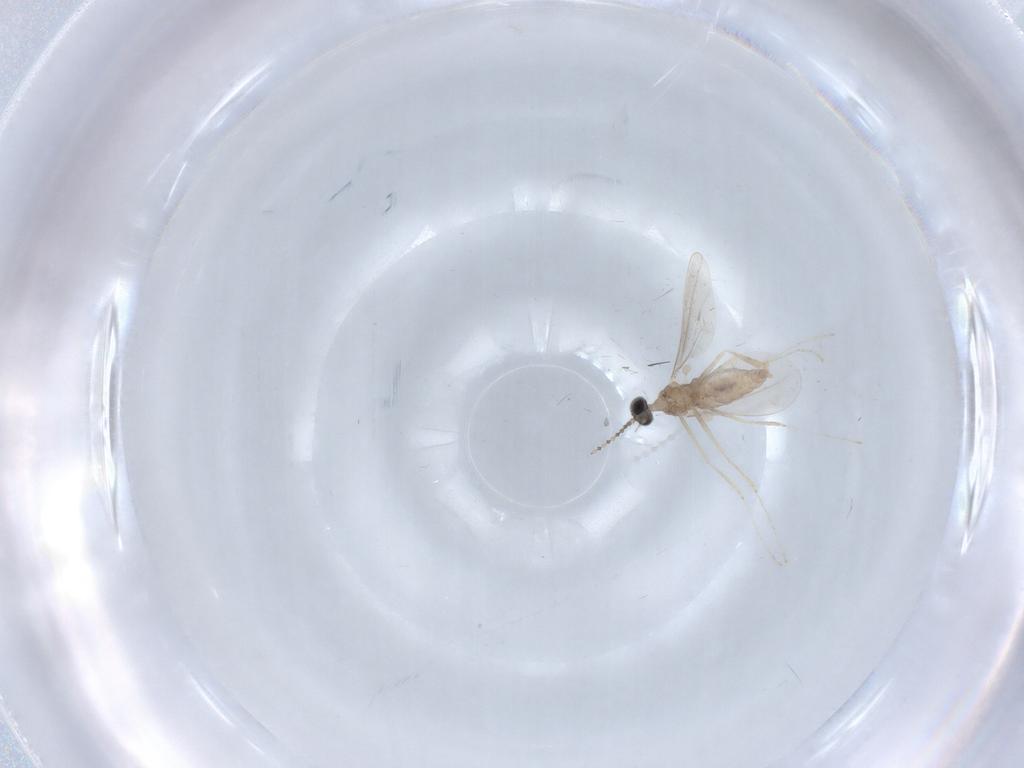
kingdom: Animalia
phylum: Arthropoda
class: Insecta
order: Diptera
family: Cecidomyiidae
